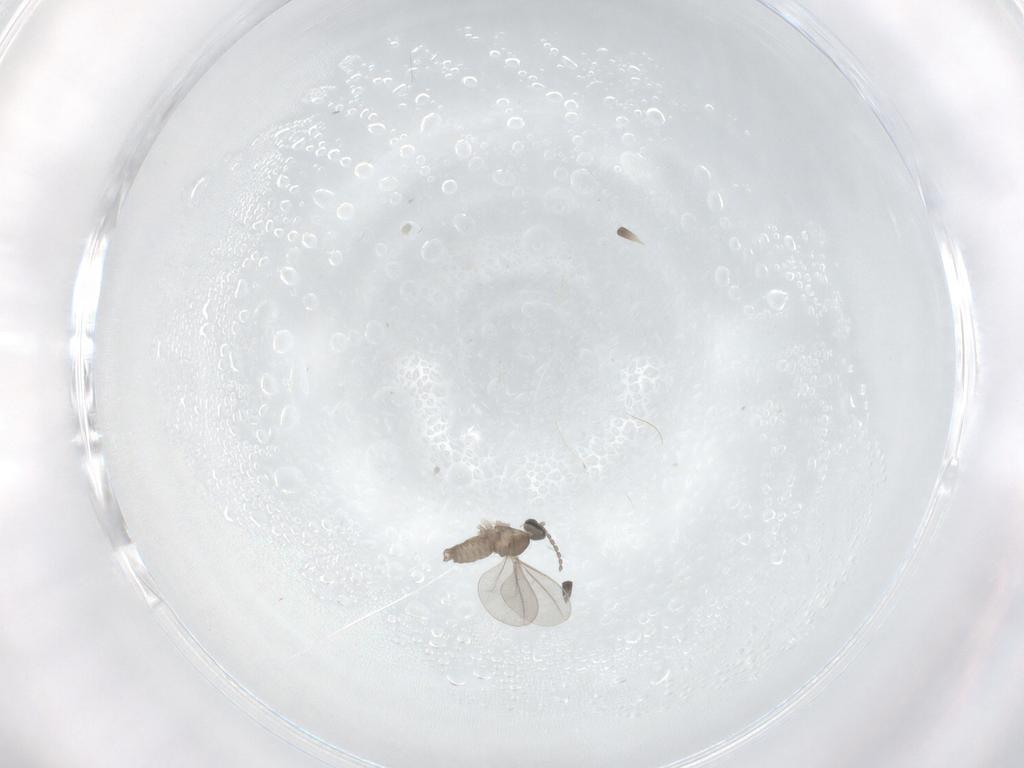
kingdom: Animalia
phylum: Arthropoda
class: Insecta
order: Diptera
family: Cecidomyiidae
